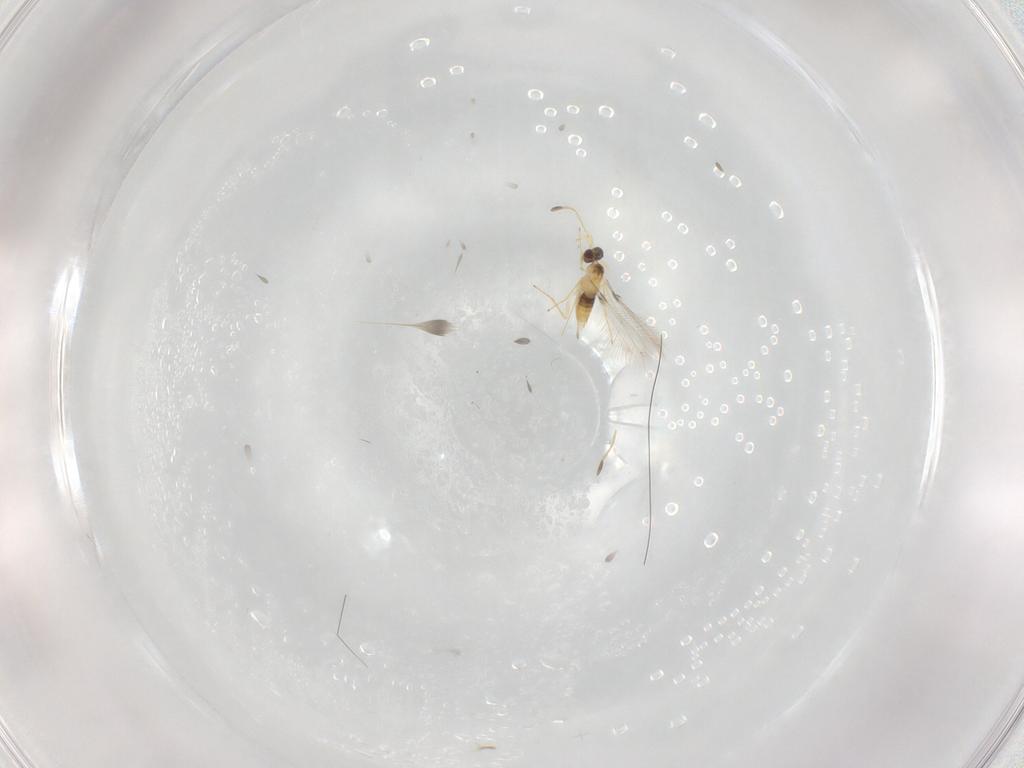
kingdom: Animalia
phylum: Arthropoda
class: Insecta
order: Hymenoptera
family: Mymaridae
